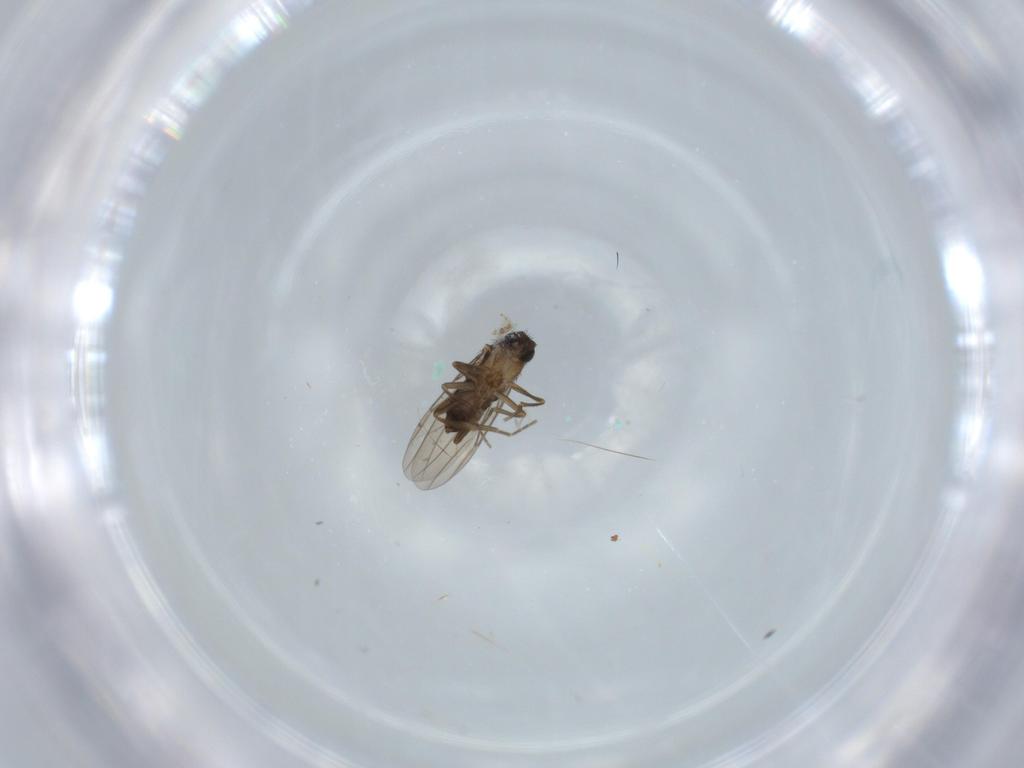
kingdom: Animalia
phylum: Arthropoda
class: Insecta
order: Diptera
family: Phoridae
